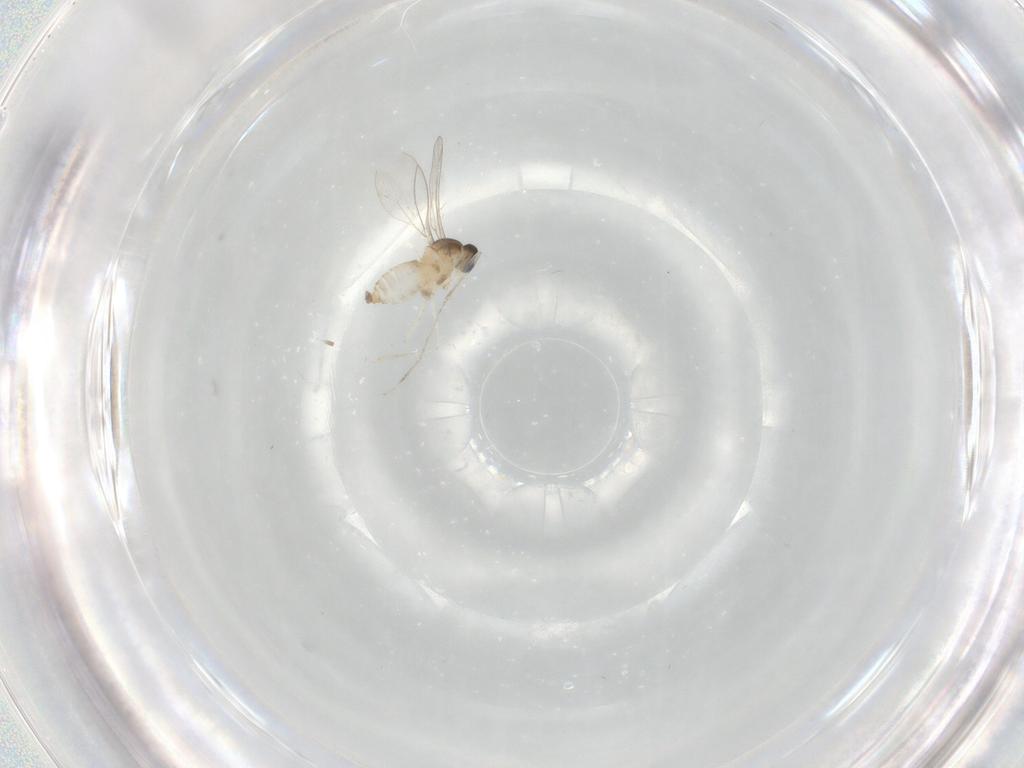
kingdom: Animalia
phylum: Arthropoda
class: Insecta
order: Diptera
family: Cecidomyiidae
